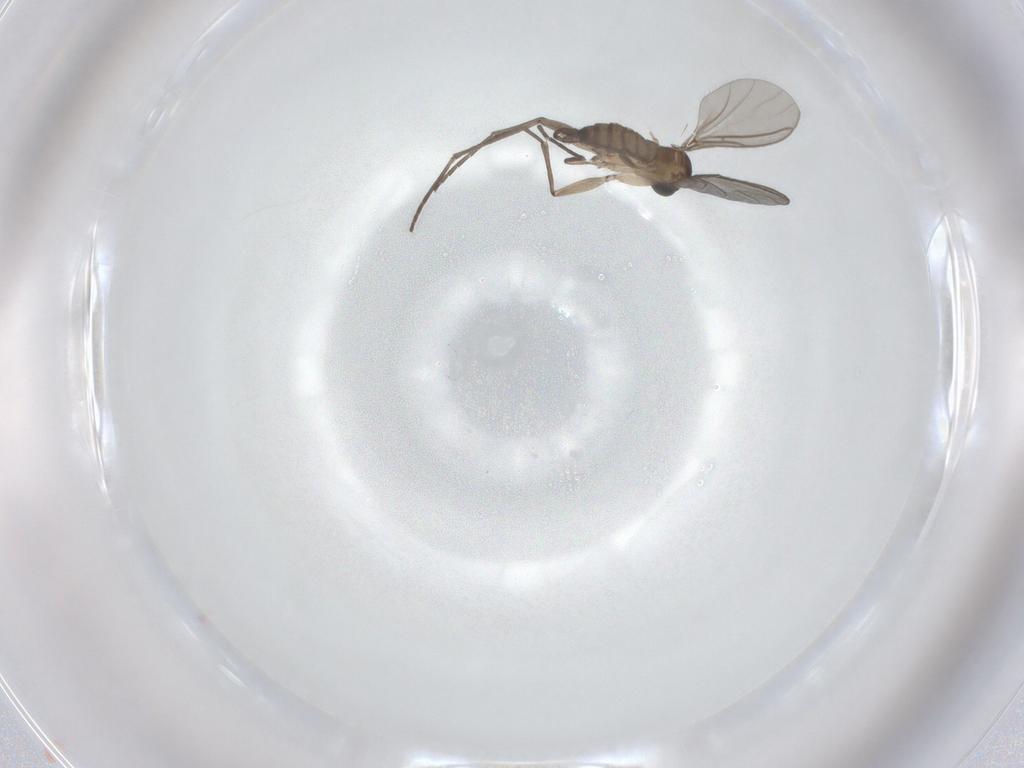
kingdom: Animalia
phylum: Arthropoda
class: Insecta
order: Diptera
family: Sciaridae
